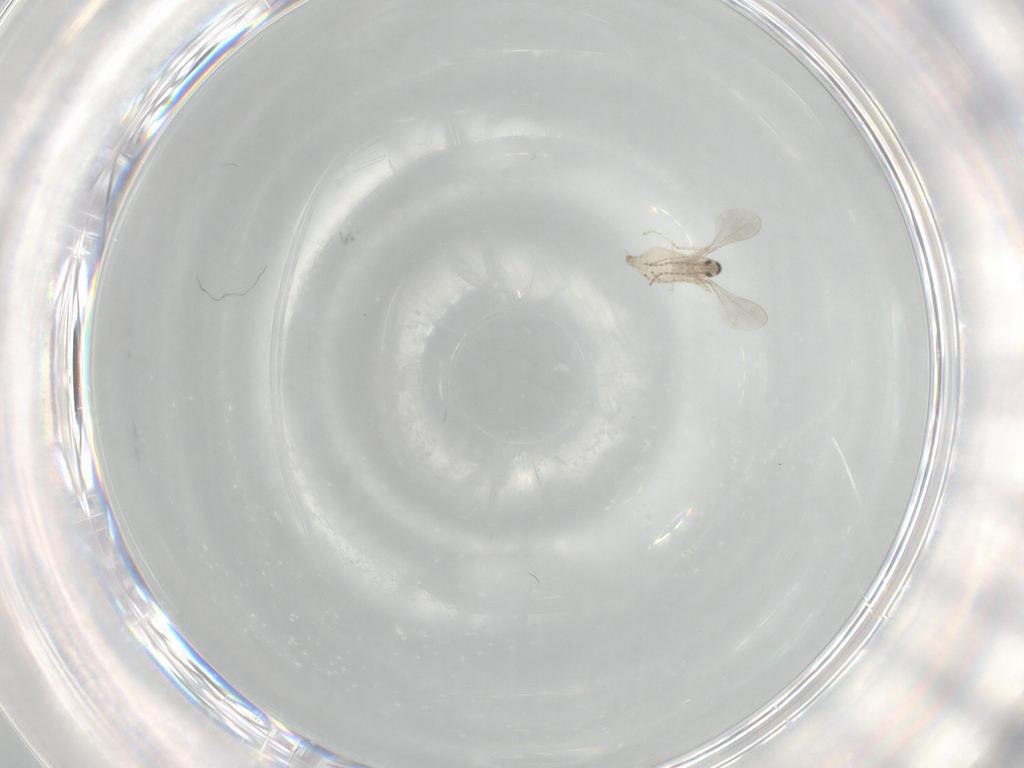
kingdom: Animalia
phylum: Arthropoda
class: Insecta
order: Diptera
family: Cecidomyiidae
